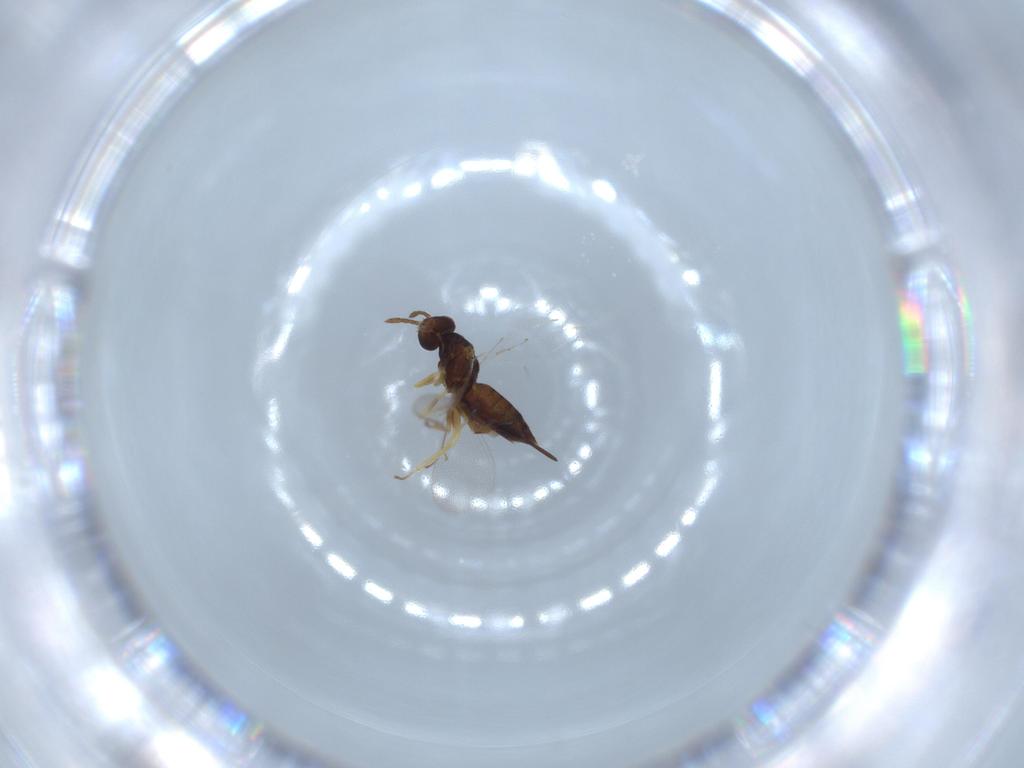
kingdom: Animalia
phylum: Arthropoda
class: Insecta
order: Hymenoptera
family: Eulophidae
